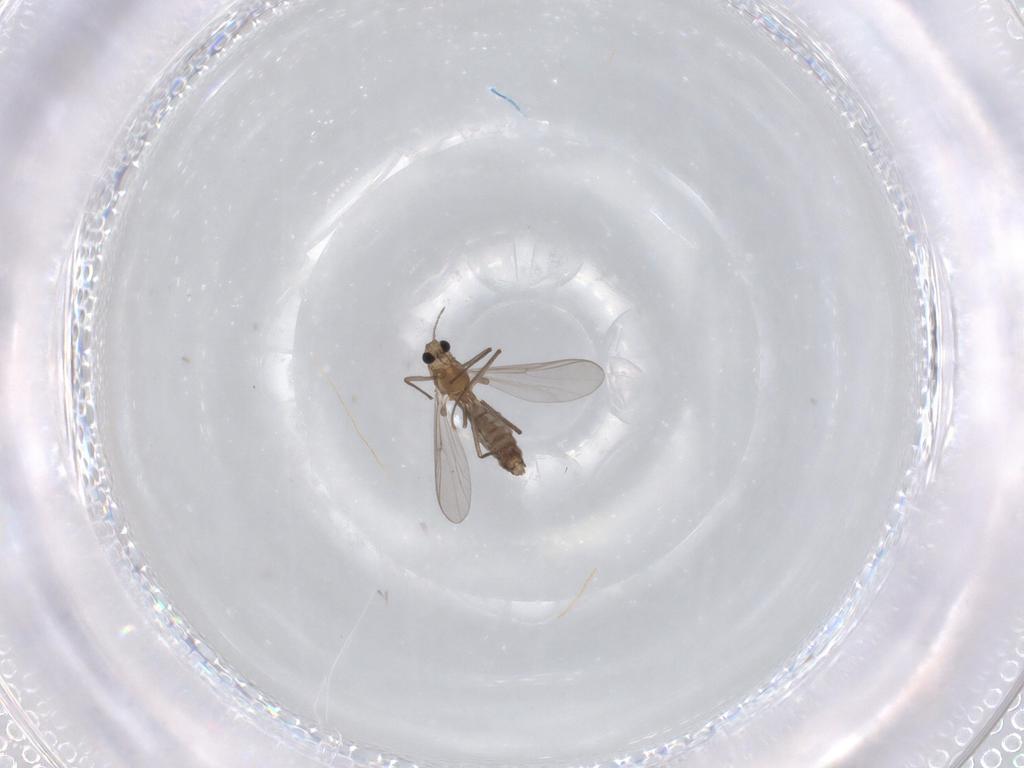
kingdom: Animalia
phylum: Arthropoda
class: Insecta
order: Diptera
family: Chironomidae
